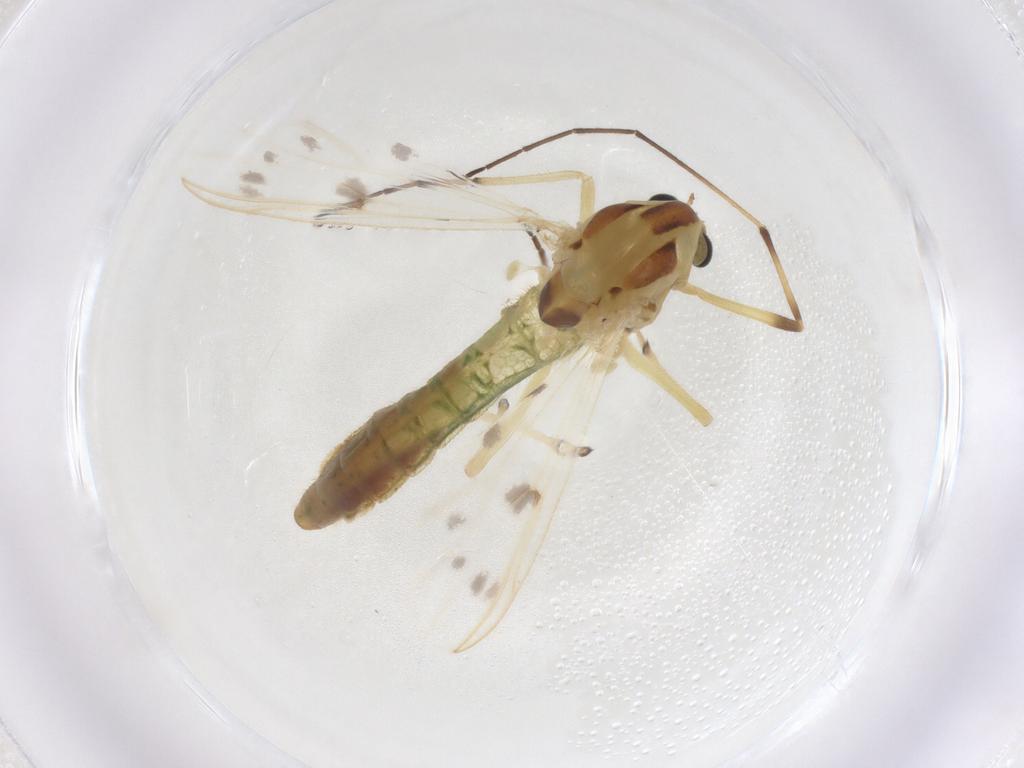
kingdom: Animalia
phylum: Arthropoda
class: Insecta
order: Diptera
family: Chironomidae
